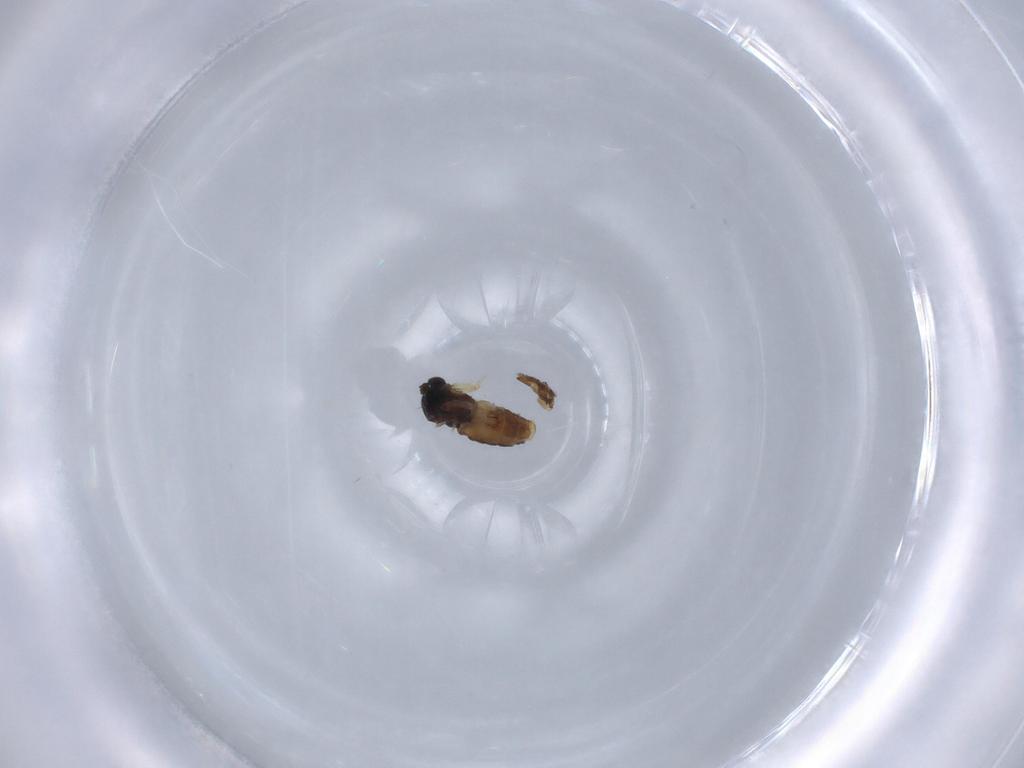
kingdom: Animalia
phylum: Arthropoda
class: Insecta
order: Diptera
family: Sciaridae
